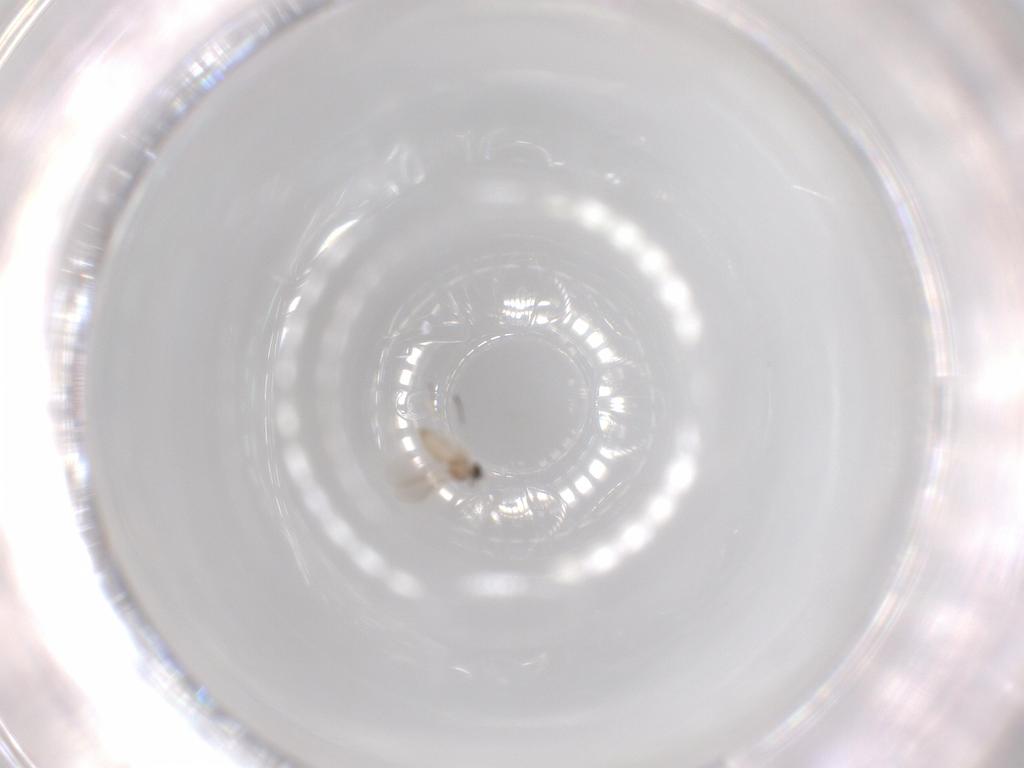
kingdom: Animalia
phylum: Arthropoda
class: Insecta
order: Diptera
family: Cecidomyiidae
